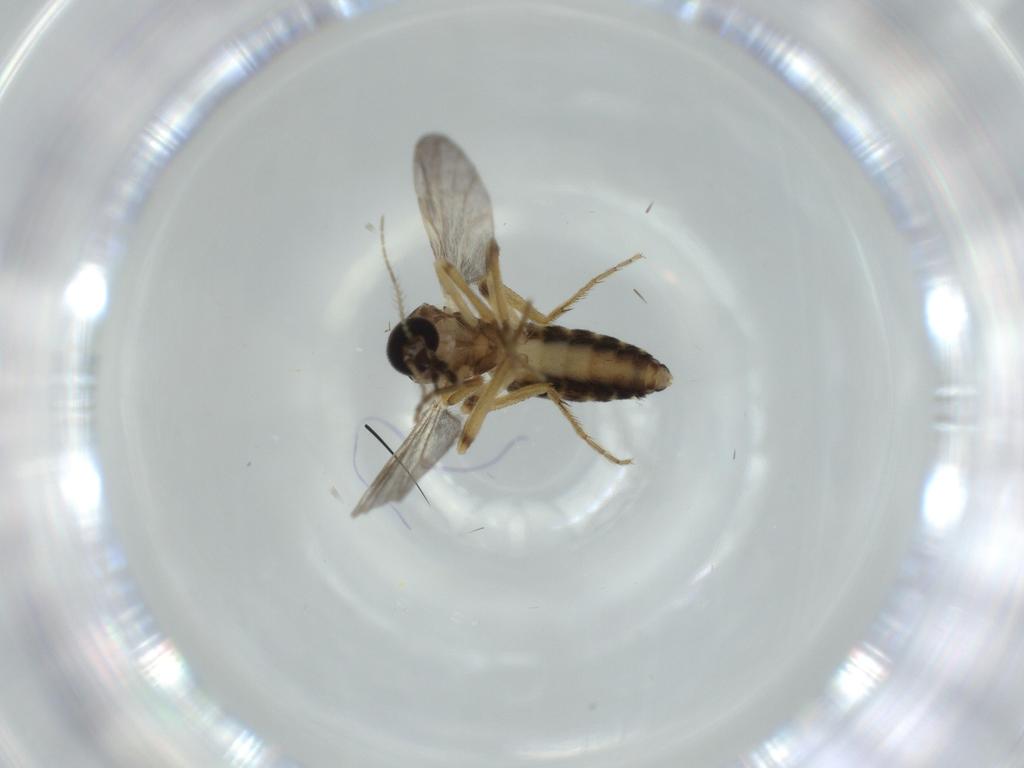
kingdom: Animalia
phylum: Arthropoda
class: Insecta
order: Diptera
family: Ceratopogonidae
